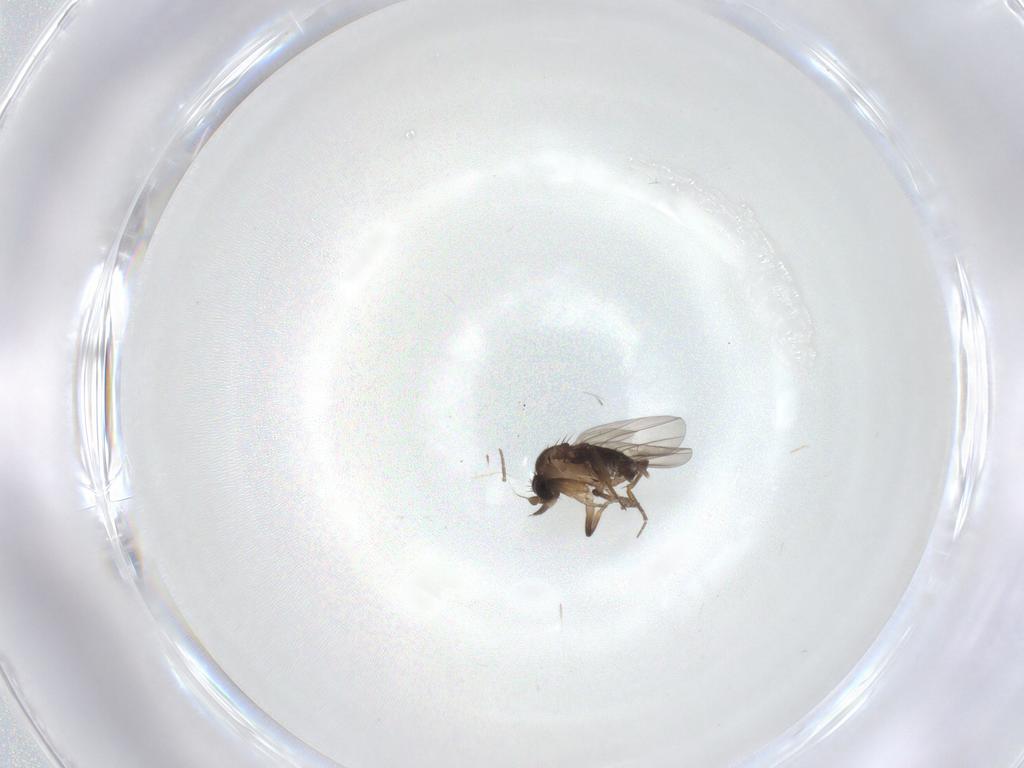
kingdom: Animalia
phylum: Arthropoda
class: Insecta
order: Diptera
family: Phoridae
